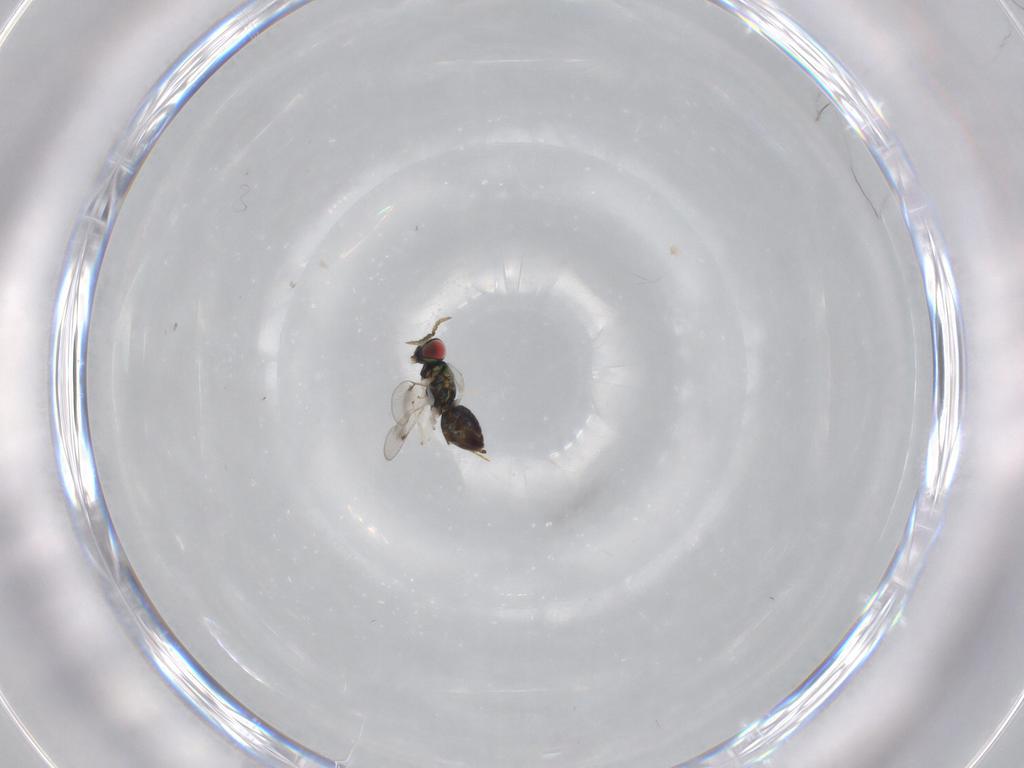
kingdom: Animalia
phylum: Arthropoda
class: Insecta
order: Hymenoptera
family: Eulophidae
